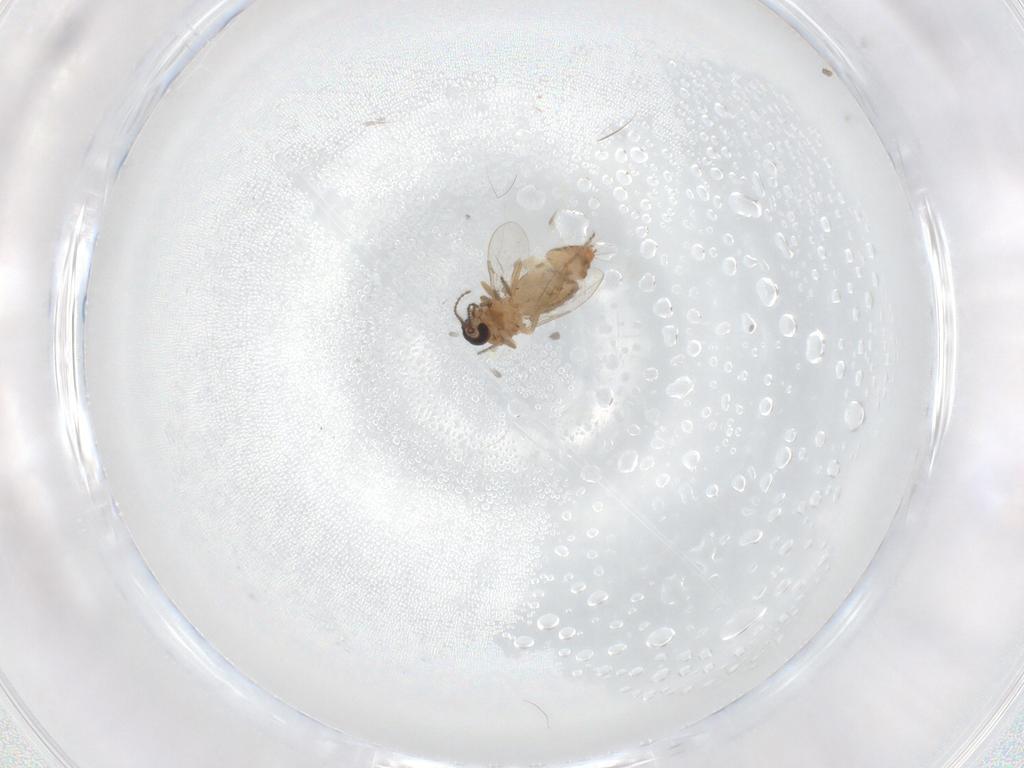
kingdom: Animalia
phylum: Arthropoda
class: Insecta
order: Diptera
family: Ceratopogonidae
